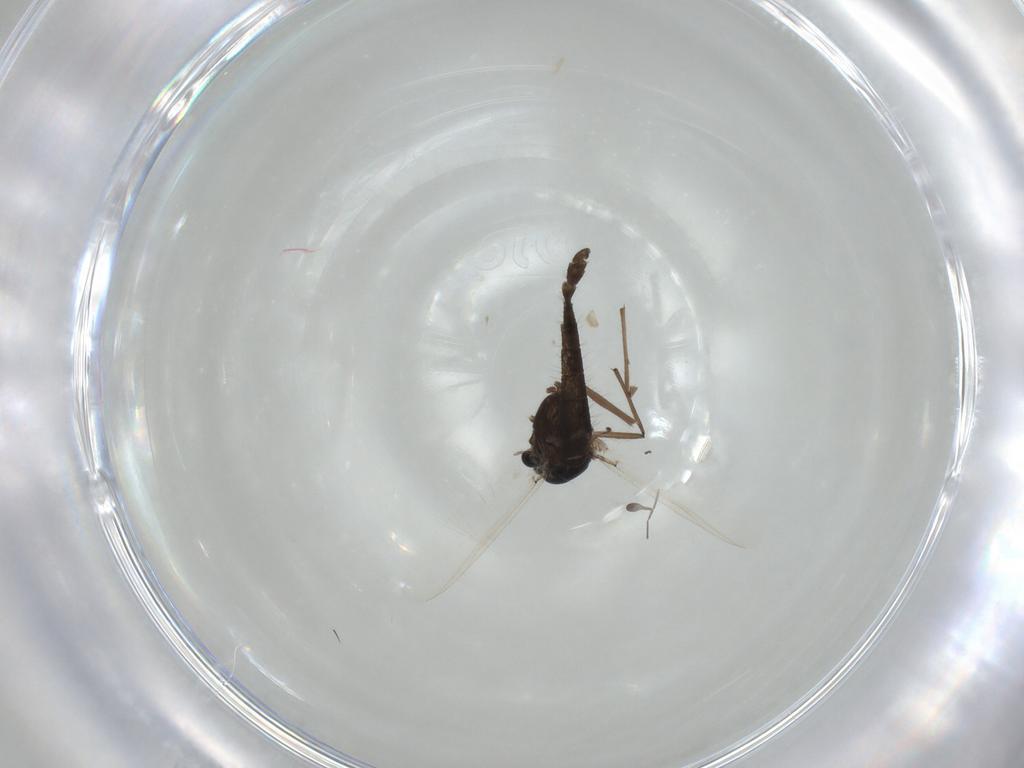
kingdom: Animalia
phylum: Arthropoda
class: Insecta
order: Diptera
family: Chironomidae
